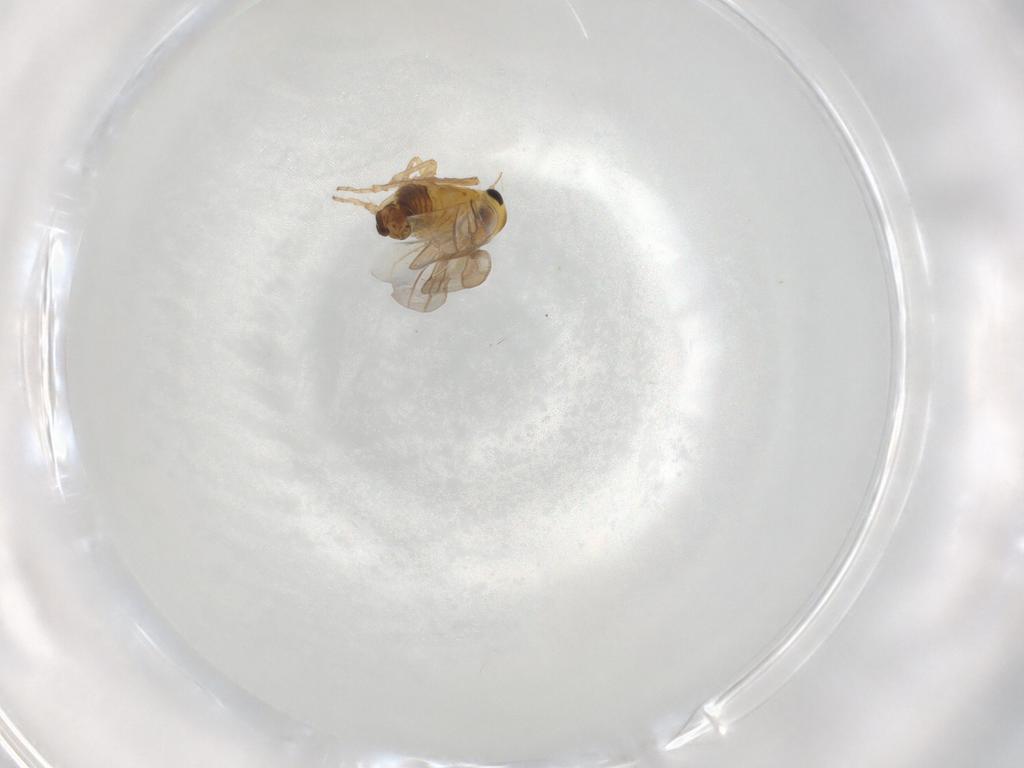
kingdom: Animalia
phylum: Arthropoda
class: Insecta
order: Hemiptera
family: Cicadellidae
